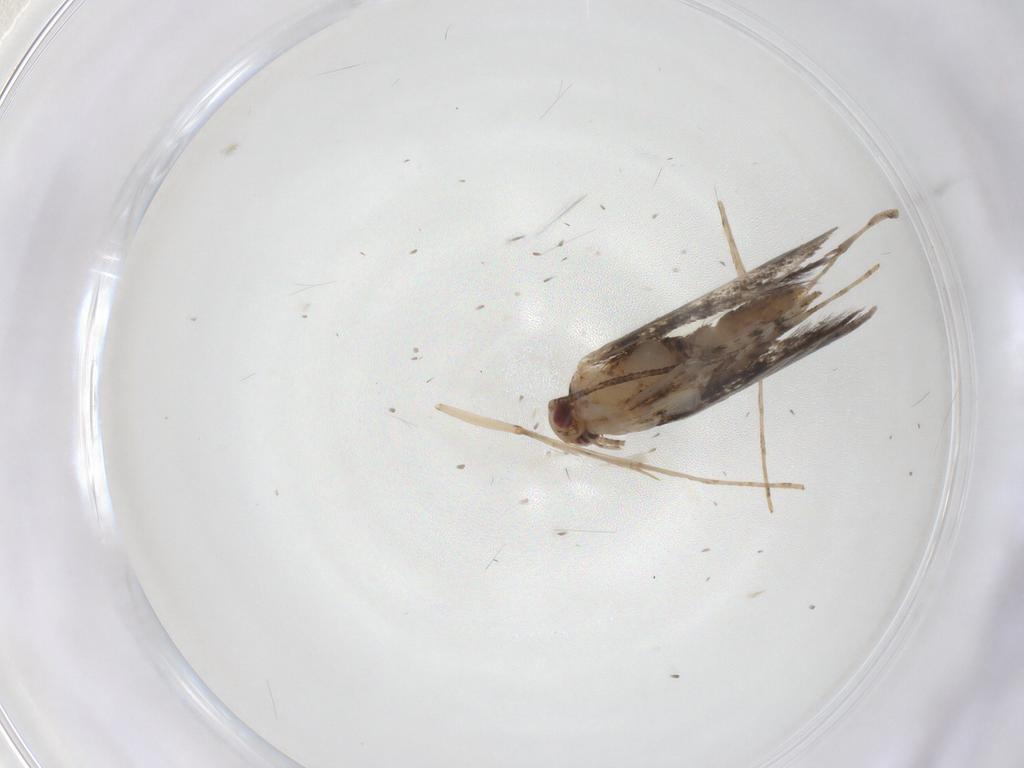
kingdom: Animalia
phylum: Arthropoda
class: Insecta
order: Lepidoptera
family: Gracillariidae
